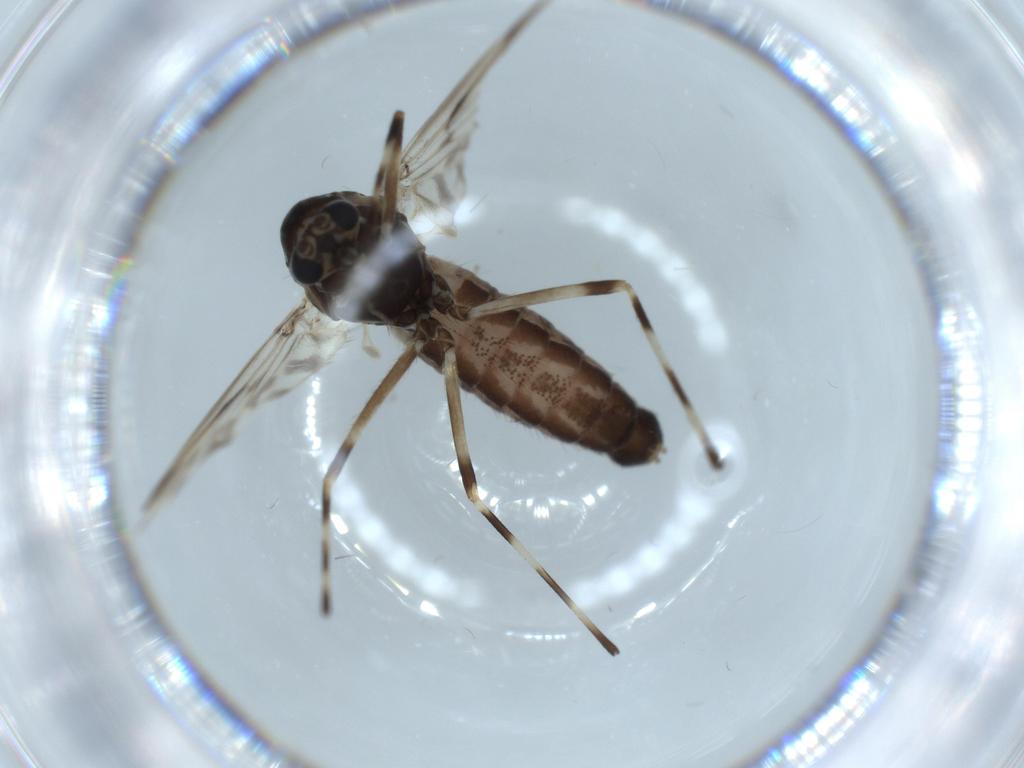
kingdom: Animalia
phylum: Arthropoda
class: Insecta
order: Diptera
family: Chironomidae
